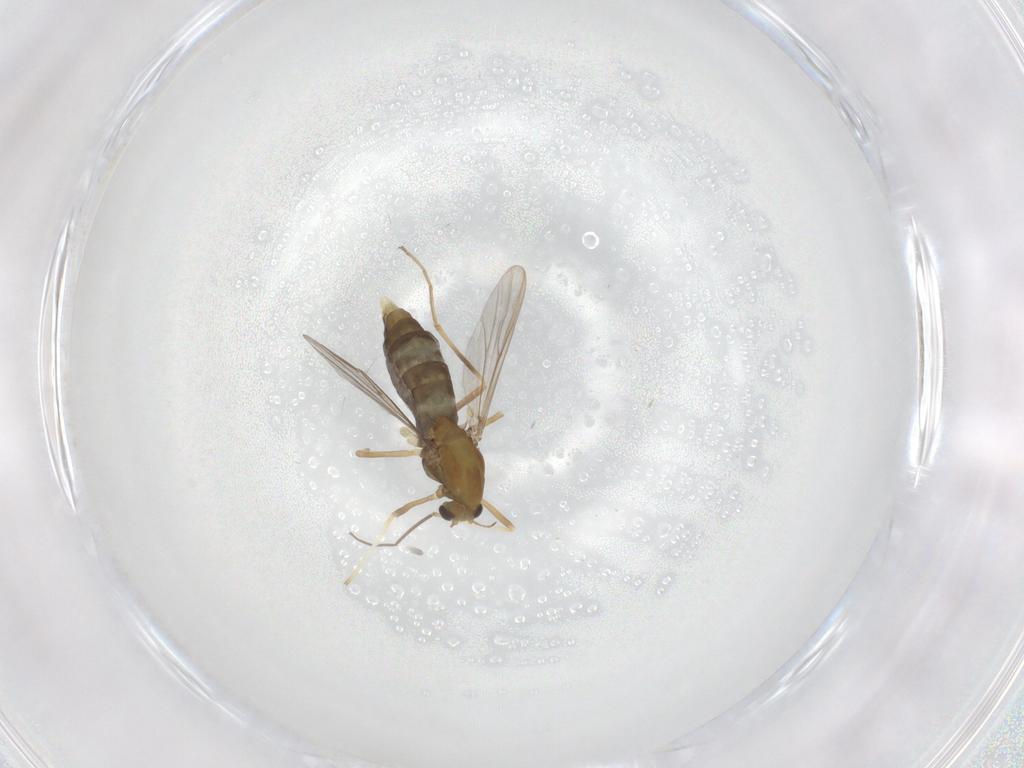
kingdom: Animalia
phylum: Arthropoda
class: Insecta
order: Diptera
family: Chironomidae
